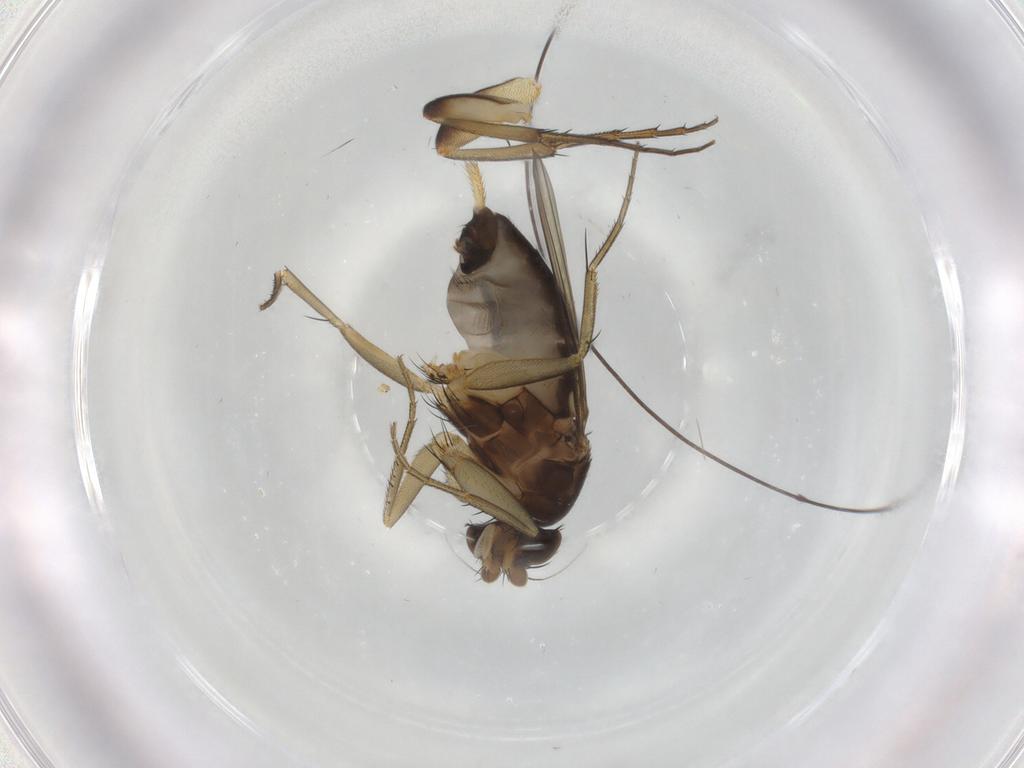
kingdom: Animalia
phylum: Arthropoda
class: Insecta
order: Diptera
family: Phoridae
